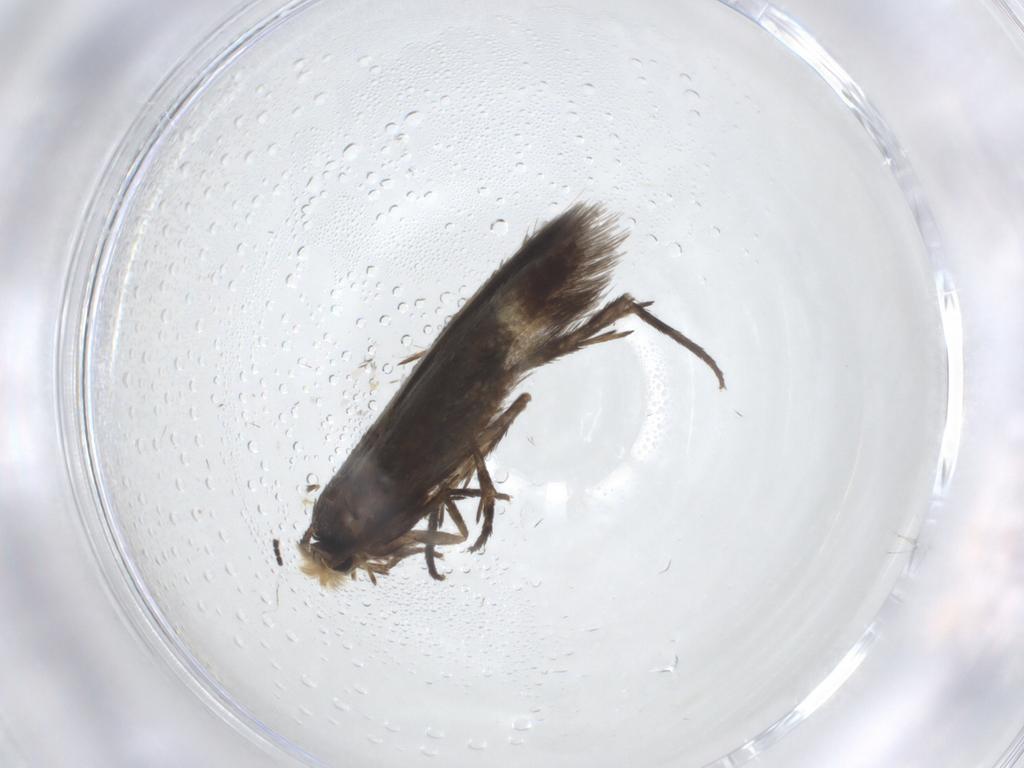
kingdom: Animalia
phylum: Arthropoda
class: Insecta
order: Lepidoptera
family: Nepticulidae
